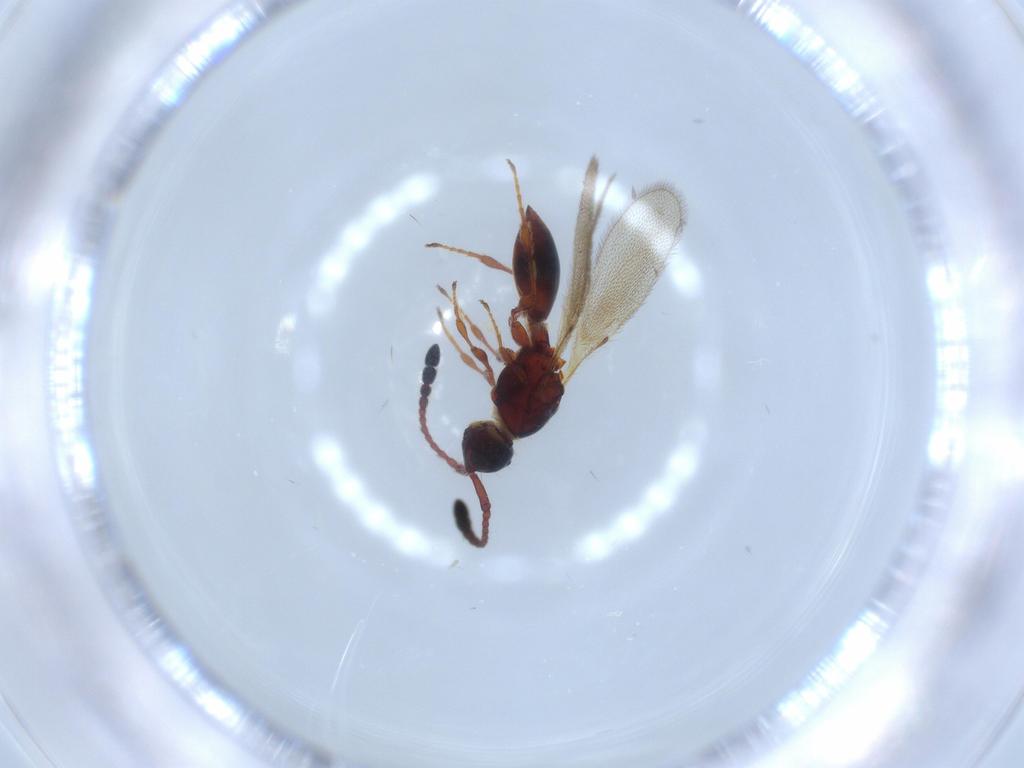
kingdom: Animalia
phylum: Arthropoda
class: Insecta
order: Hymenoptera
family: Diapriidae
